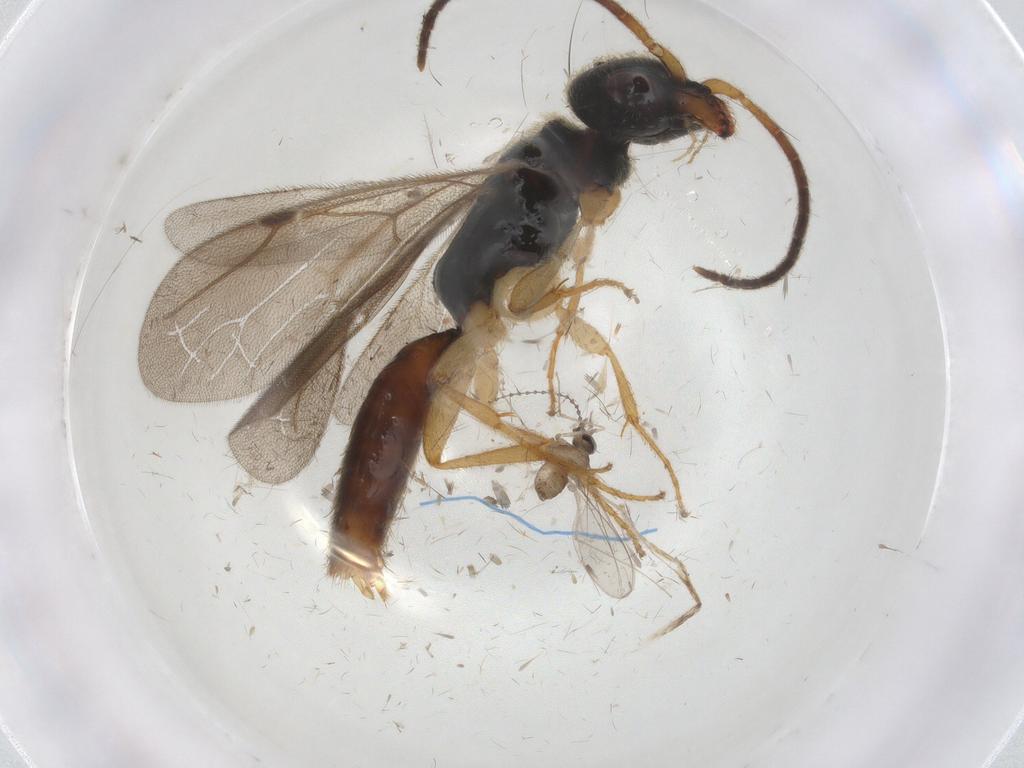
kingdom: Animalia
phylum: Arthropoda
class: Insecta
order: Diptera
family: Cecidomyiidae
